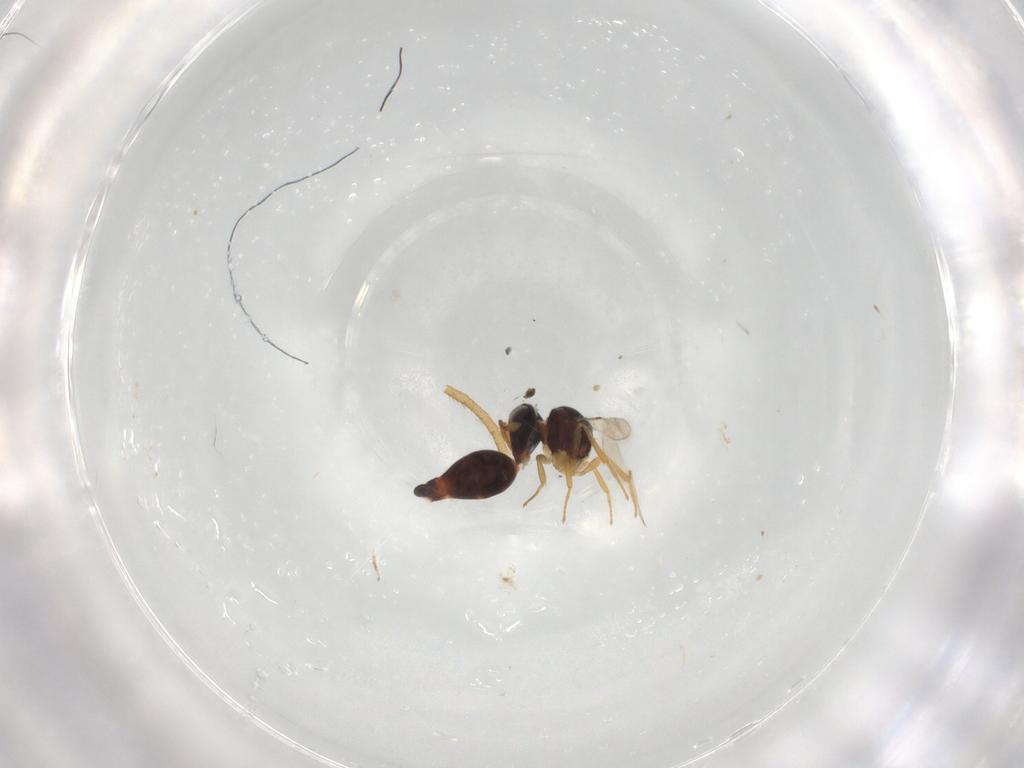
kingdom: Animalia
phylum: Arthropoda
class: Insecta
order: Hymenoptera
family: Scelionidae
